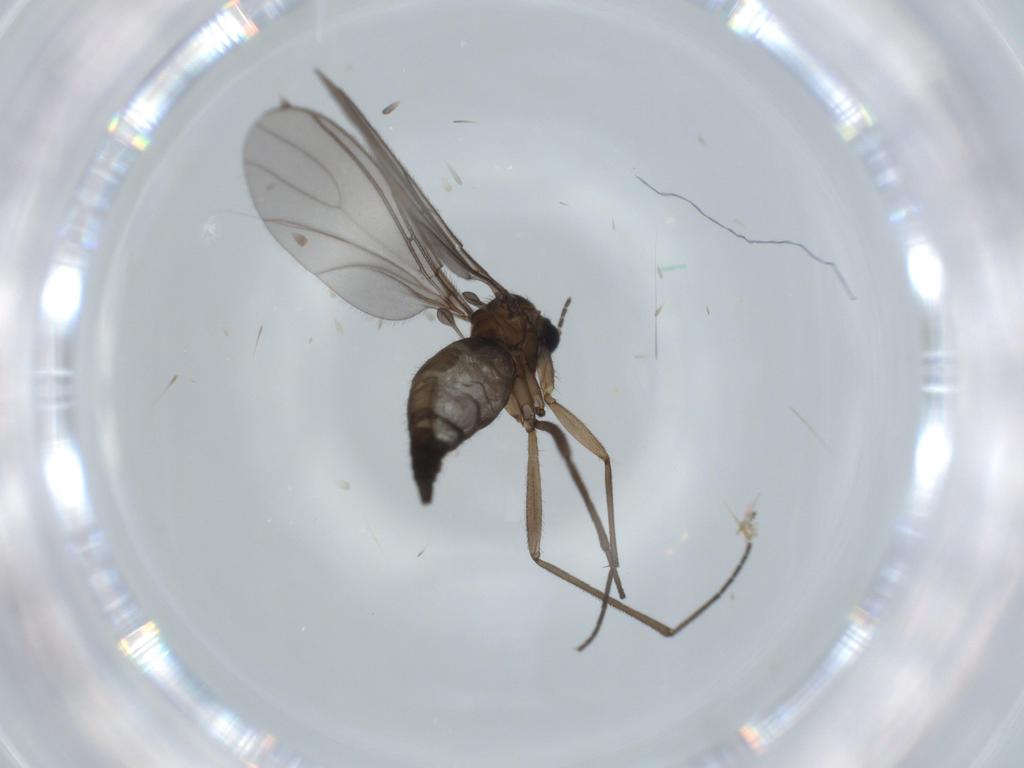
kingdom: Animalia
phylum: Arthropoda
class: Insecta
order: Diptera
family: Sciaridae
